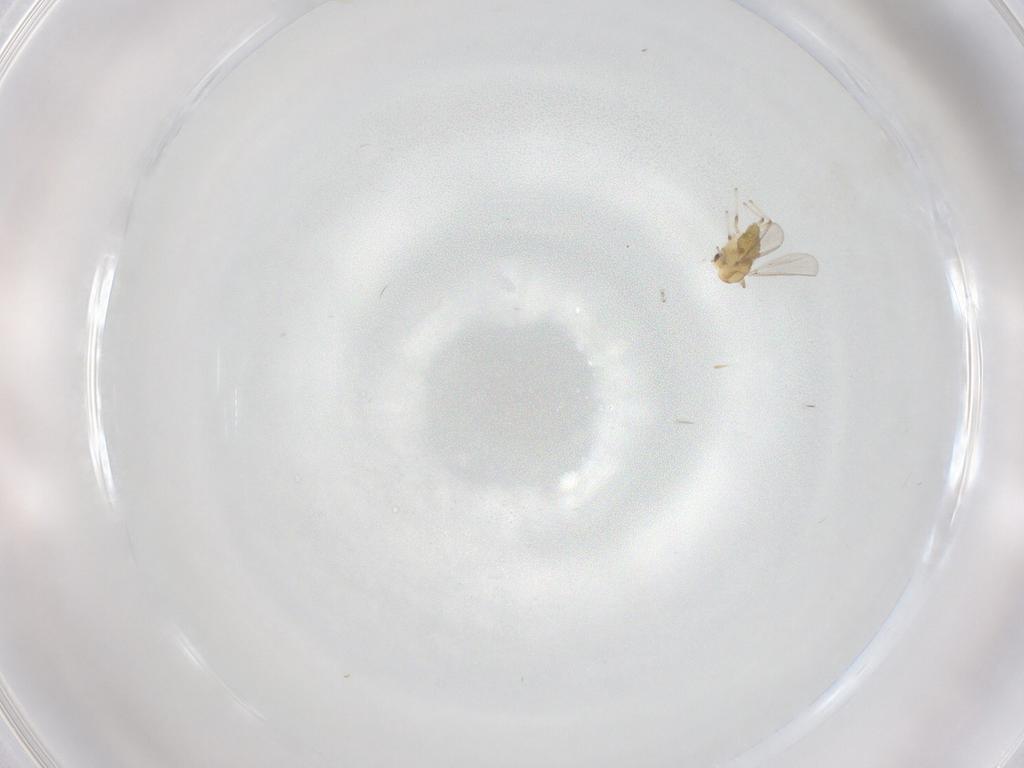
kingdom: Animalia
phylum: Arthropoda
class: Insecta
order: Diptera
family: Chironomidae
